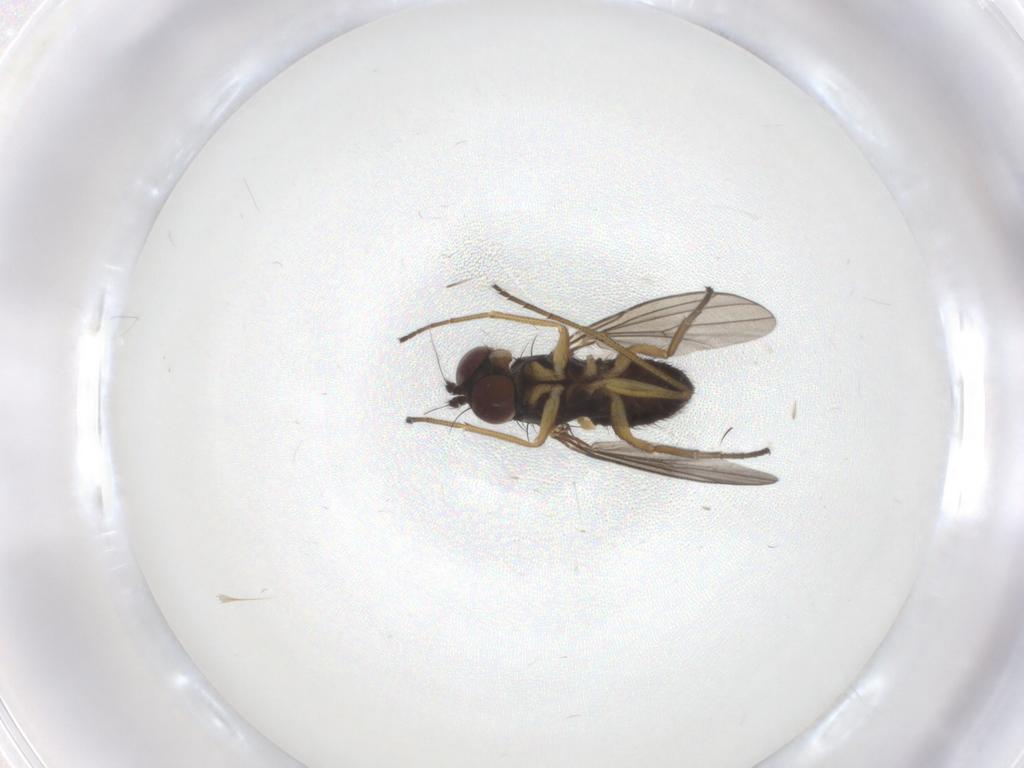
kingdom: Animalia
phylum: Arthropoda
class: Insecta
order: Diptera
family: Dolichopodidae
